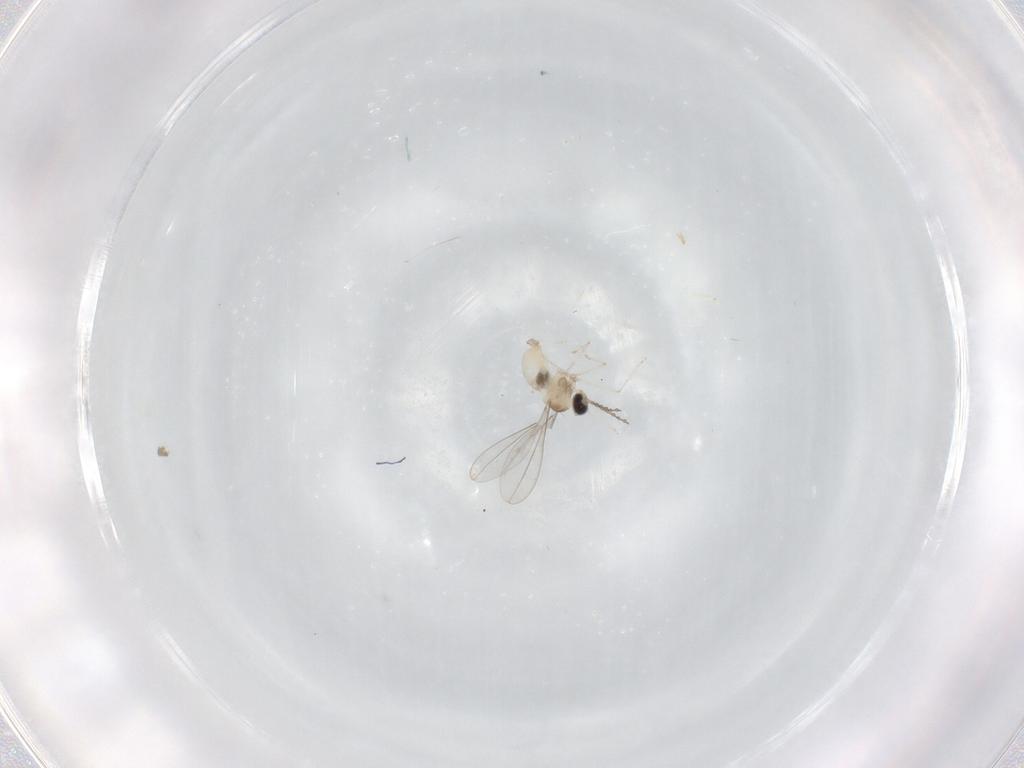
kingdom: Animalia
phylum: Arthropoda
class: Insecta
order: Diptera
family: Cecidomyiidae
